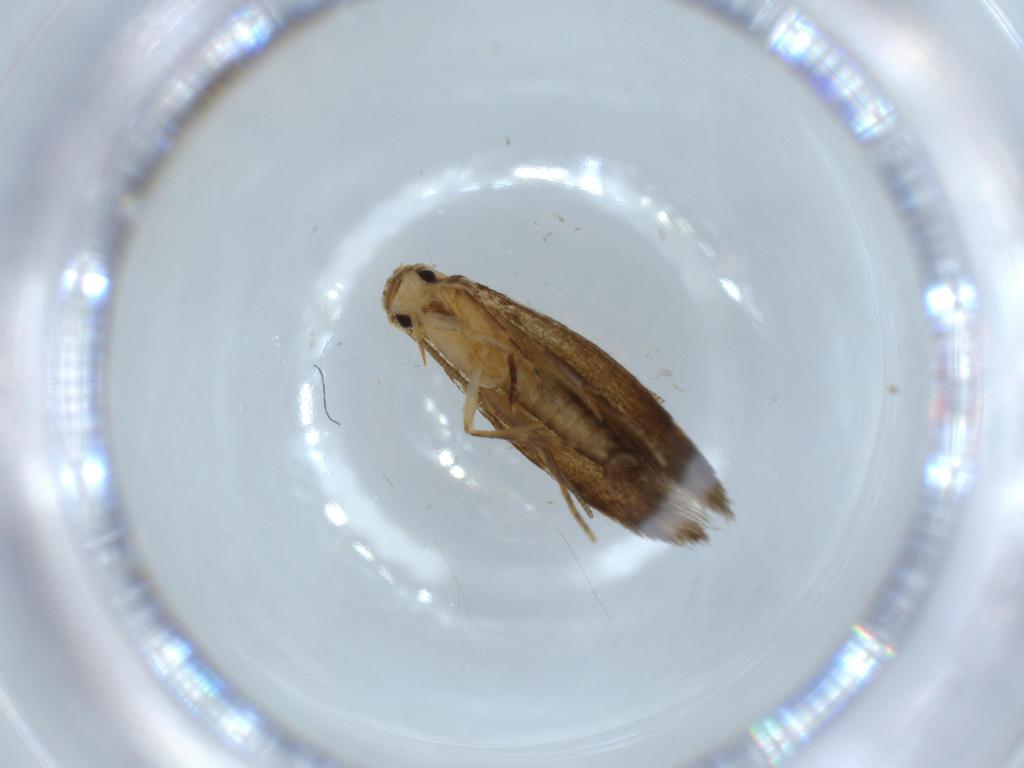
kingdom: Animalia
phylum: Arthropoda
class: Insecta
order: Lepidoptera
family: Tineidae
